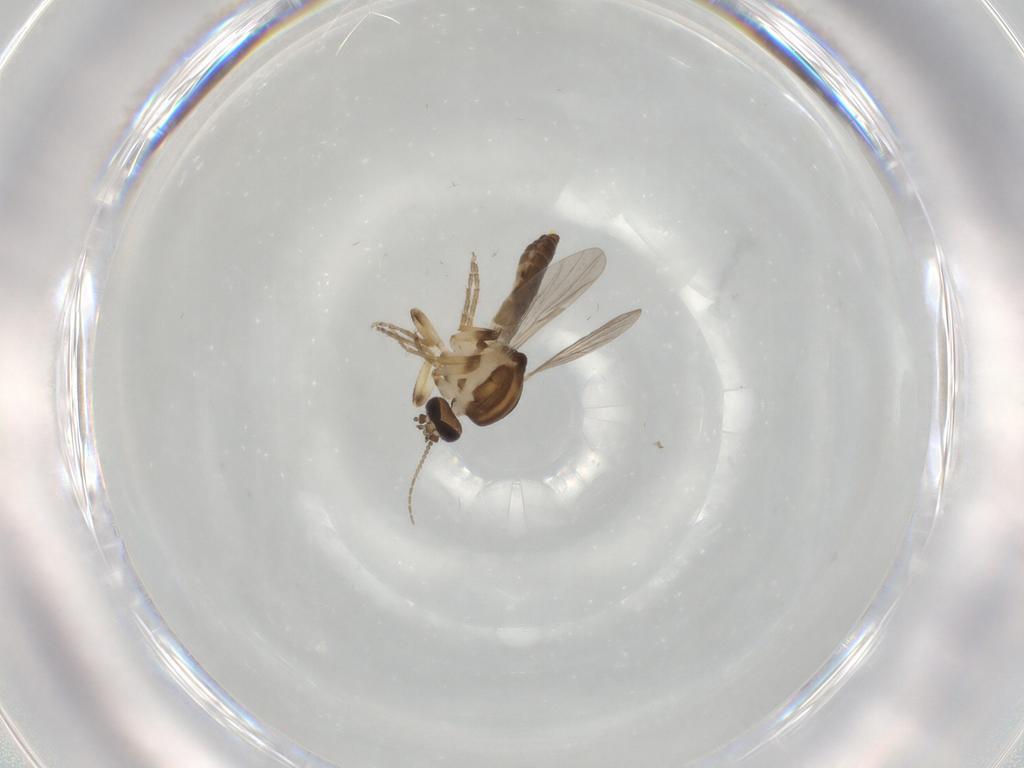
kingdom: Animalia
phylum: Arthropoda
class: Insecta
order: Diptera
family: Ceratopogonidae
